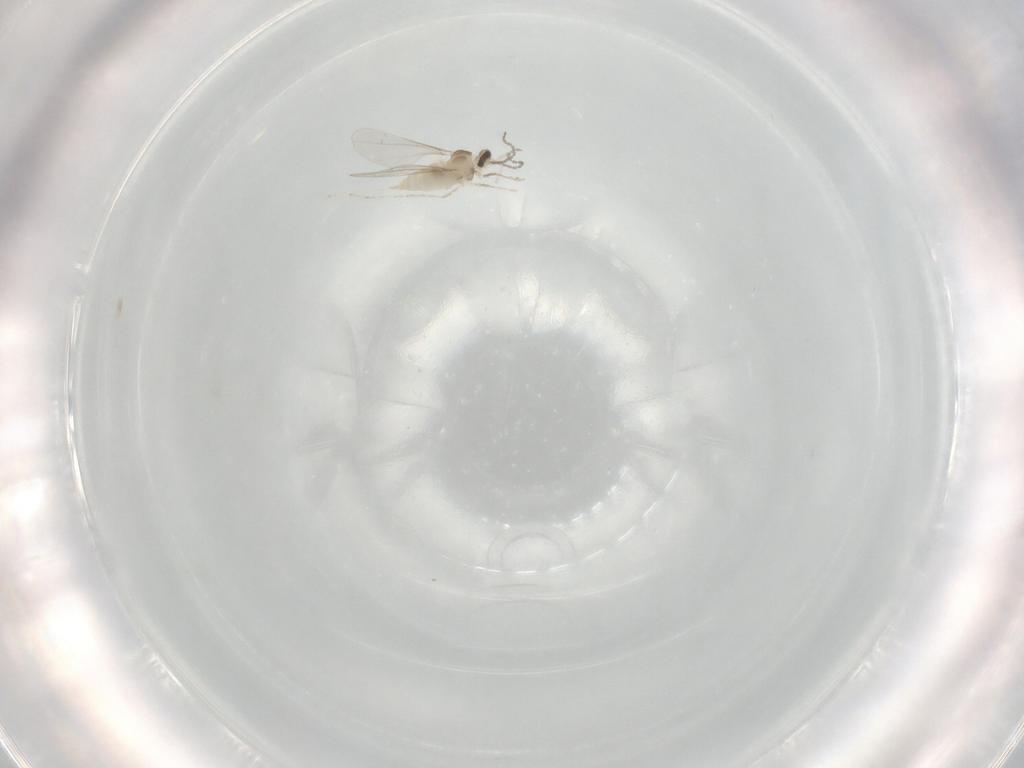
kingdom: Animalia
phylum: Arthropoda
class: Insecta
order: Diptera
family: Cecidomyiidae
